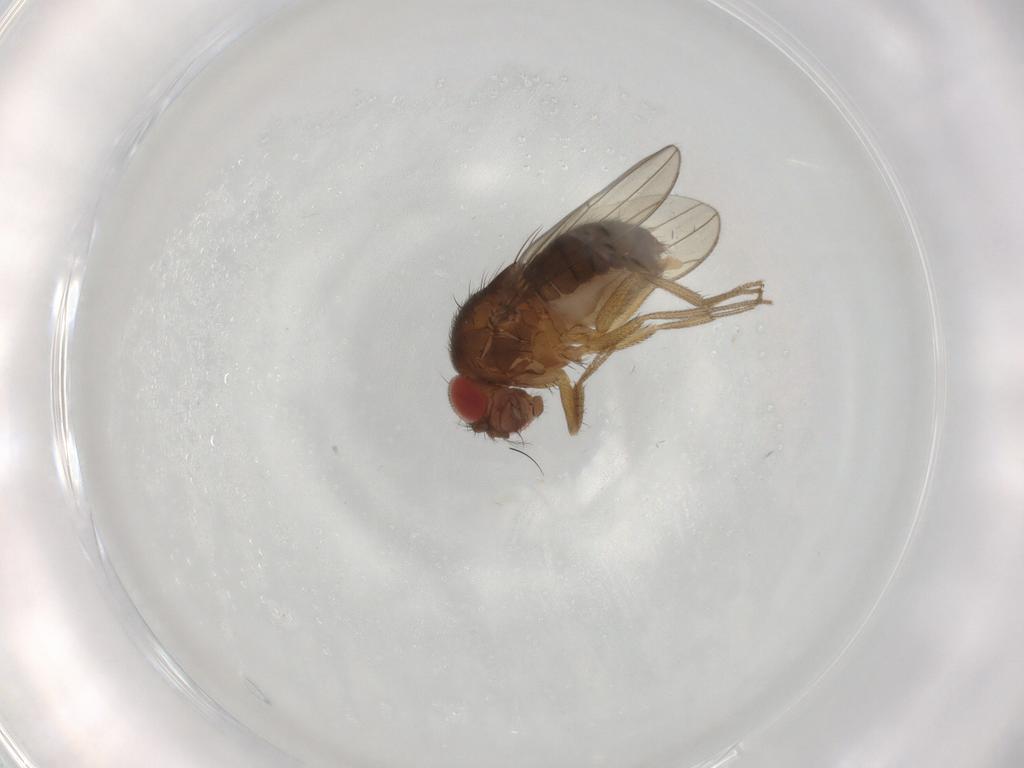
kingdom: Animalia
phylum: Arthropoda
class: Insecta
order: Diptera
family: Drosophilidae
